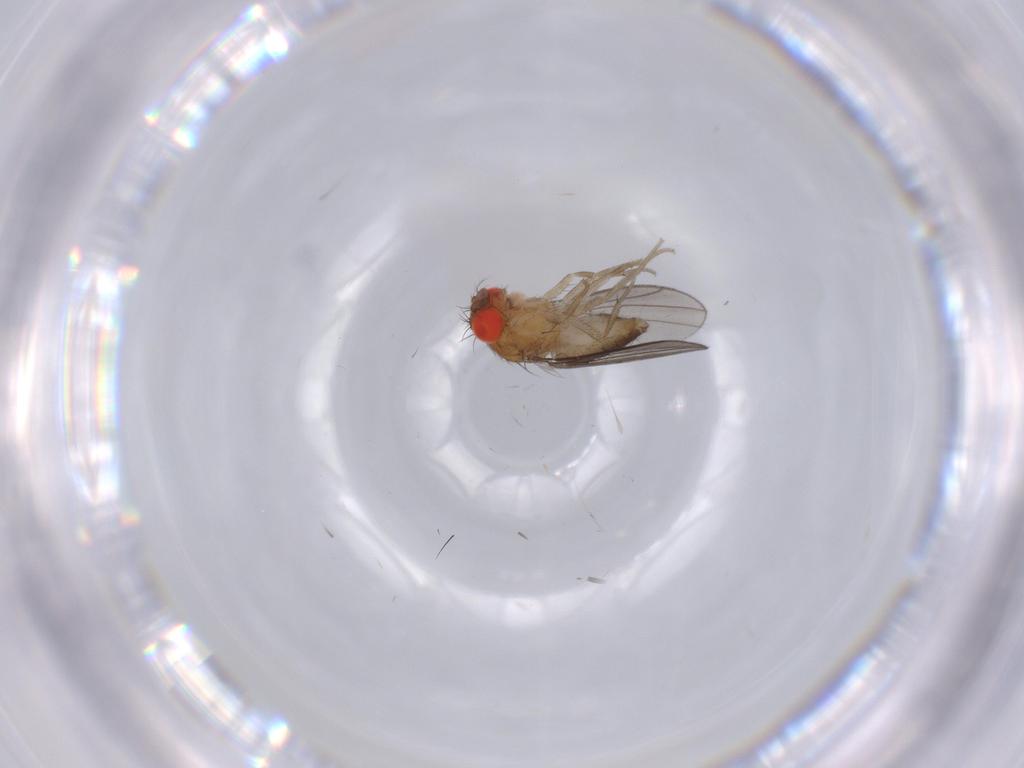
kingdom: Animalia
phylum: Arthropoda
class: Insecta
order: Diptera
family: Drosophilidae
